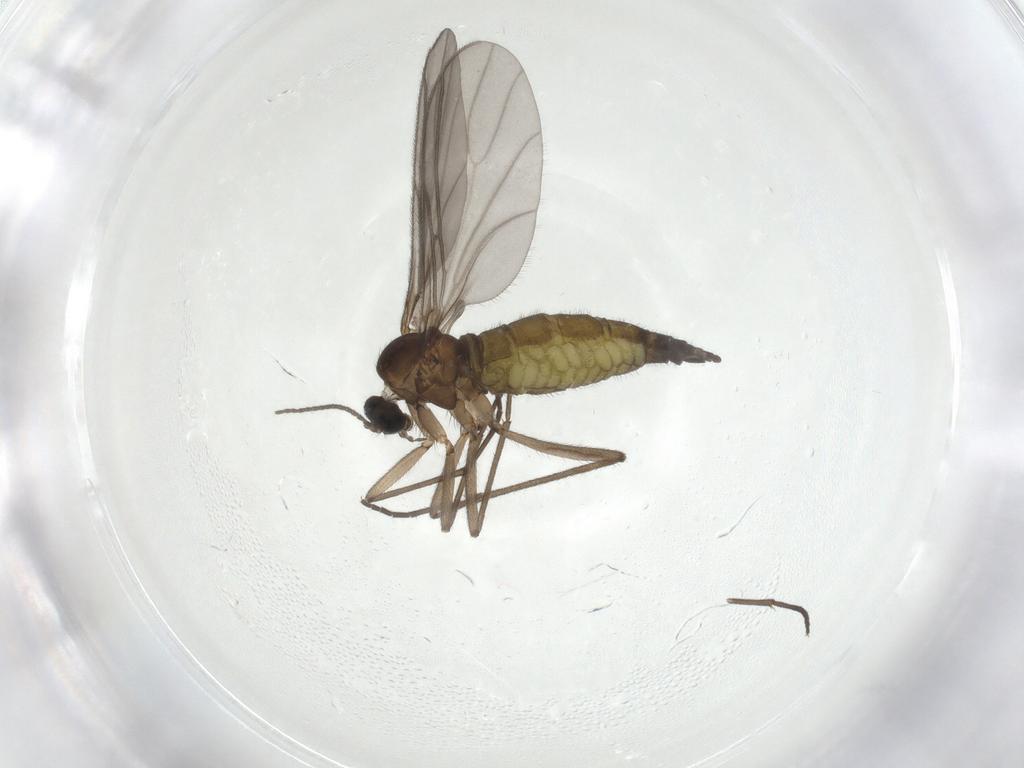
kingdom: Animalia
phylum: Arthropoda
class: Insecta
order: Diptera
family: Sciaridae
